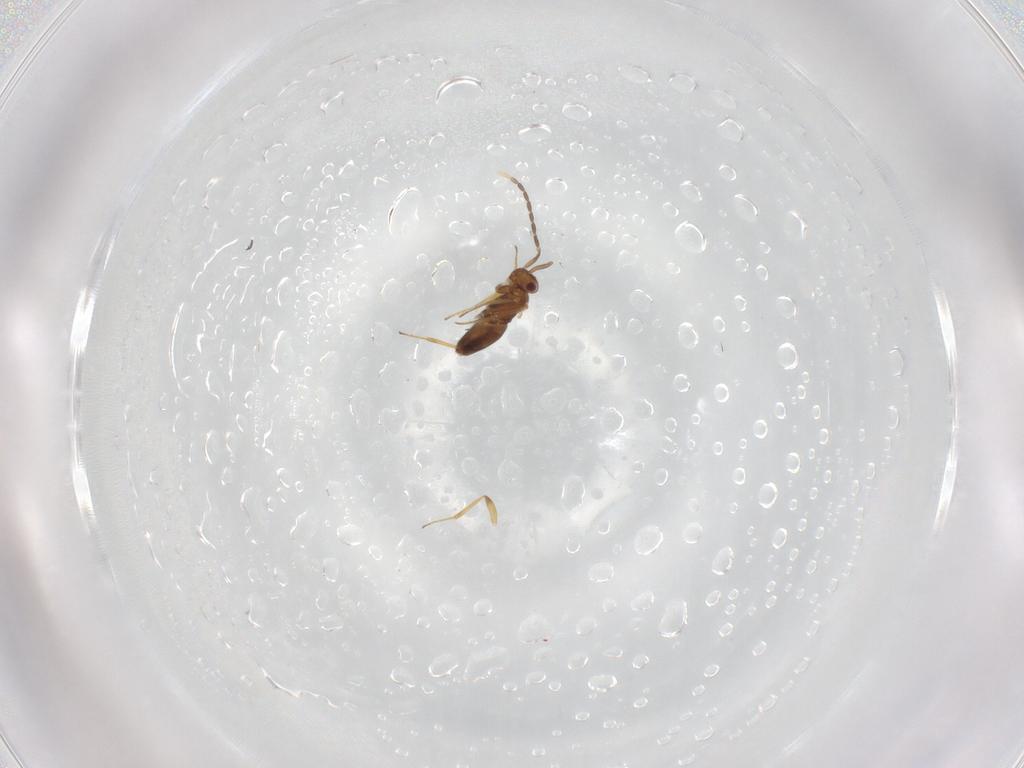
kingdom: Animalia
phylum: Arthropoda
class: Insecta
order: Hymenoptera
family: Encyrtidae
